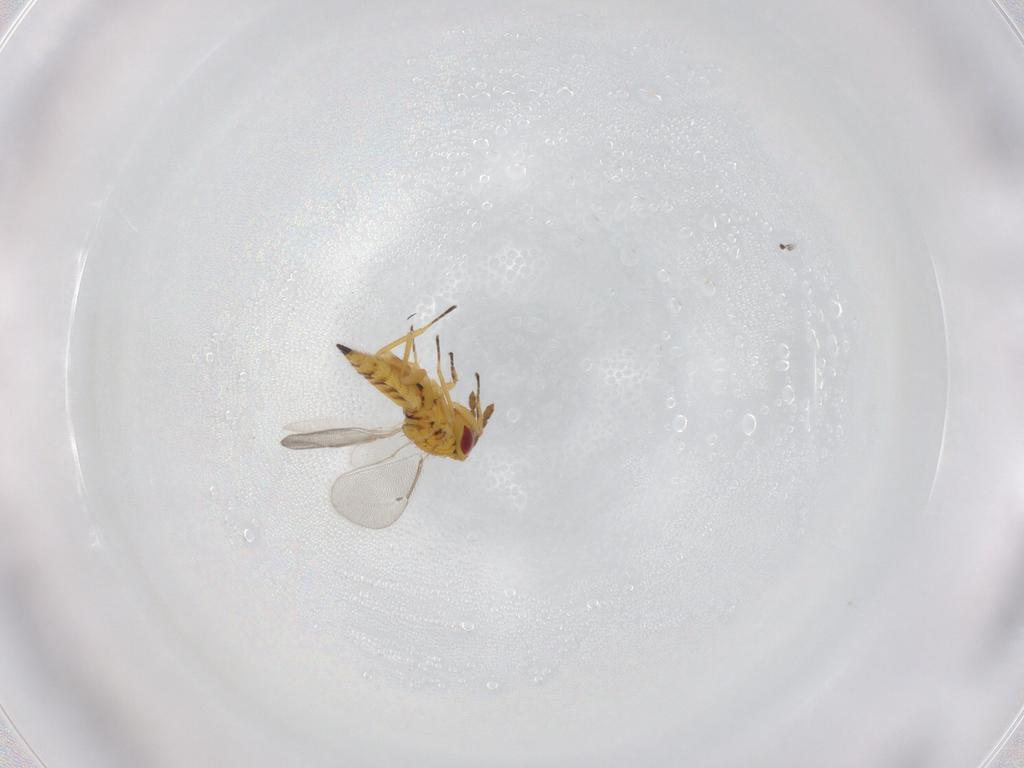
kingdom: Animalia
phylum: Arthropoda
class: Insecta
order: Hymenoptera
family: Eulophidae
